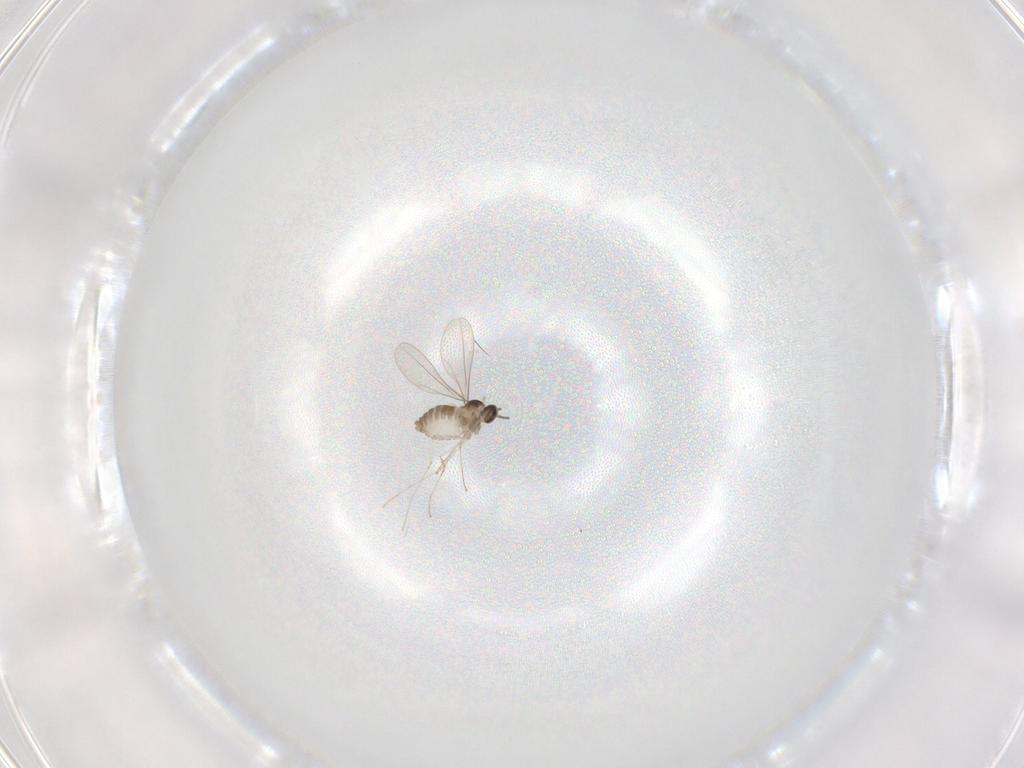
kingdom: Animalia
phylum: Arthropoda
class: Insecta
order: Diptera
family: Cecidomyiidae
